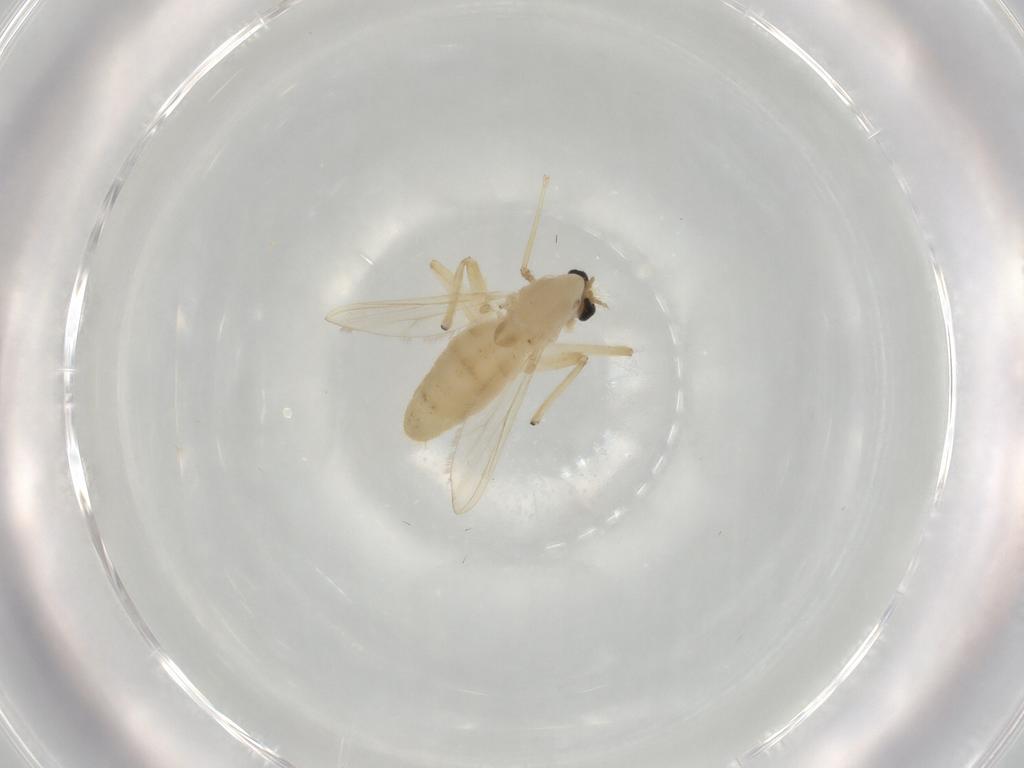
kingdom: Animalia
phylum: Arthropoda
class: Insecta
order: Diptera
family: Chironomidae
